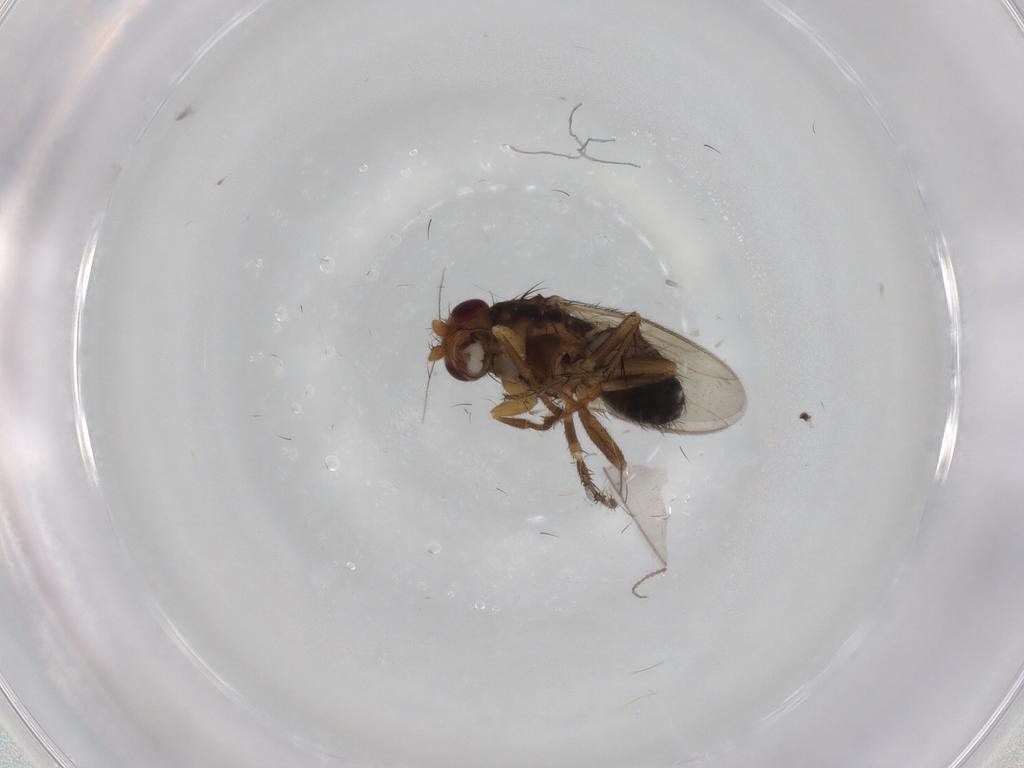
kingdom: Animalia
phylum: Arthropoda
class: Insecta
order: Diptera
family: Sphaeroceridae
